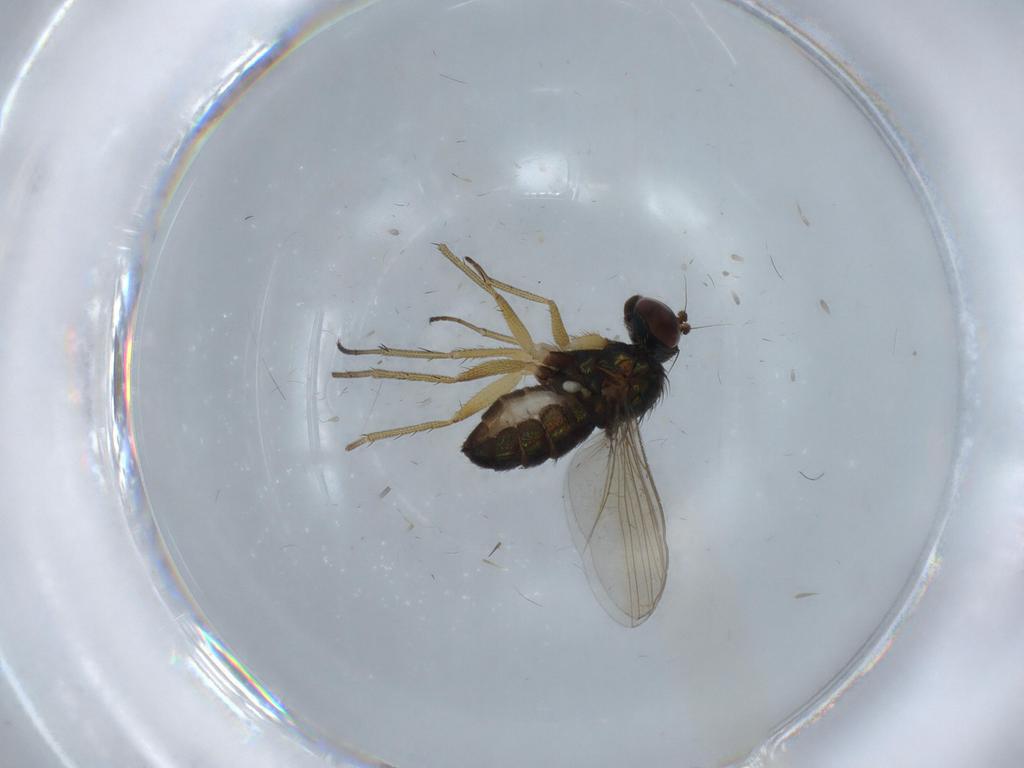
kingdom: Animalia
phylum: Arthropoda
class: Insecta
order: Diptera
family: Dolichopodidae
